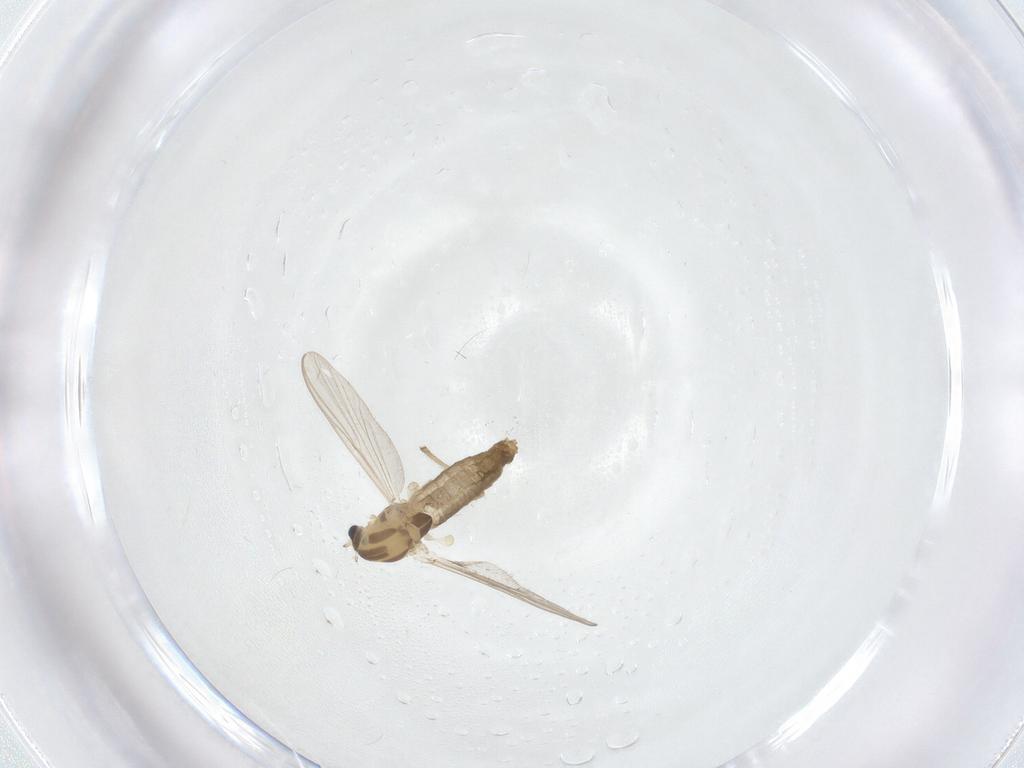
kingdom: Animalia
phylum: Arthropoda
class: Insecta
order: Diptera
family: Chironomidae
